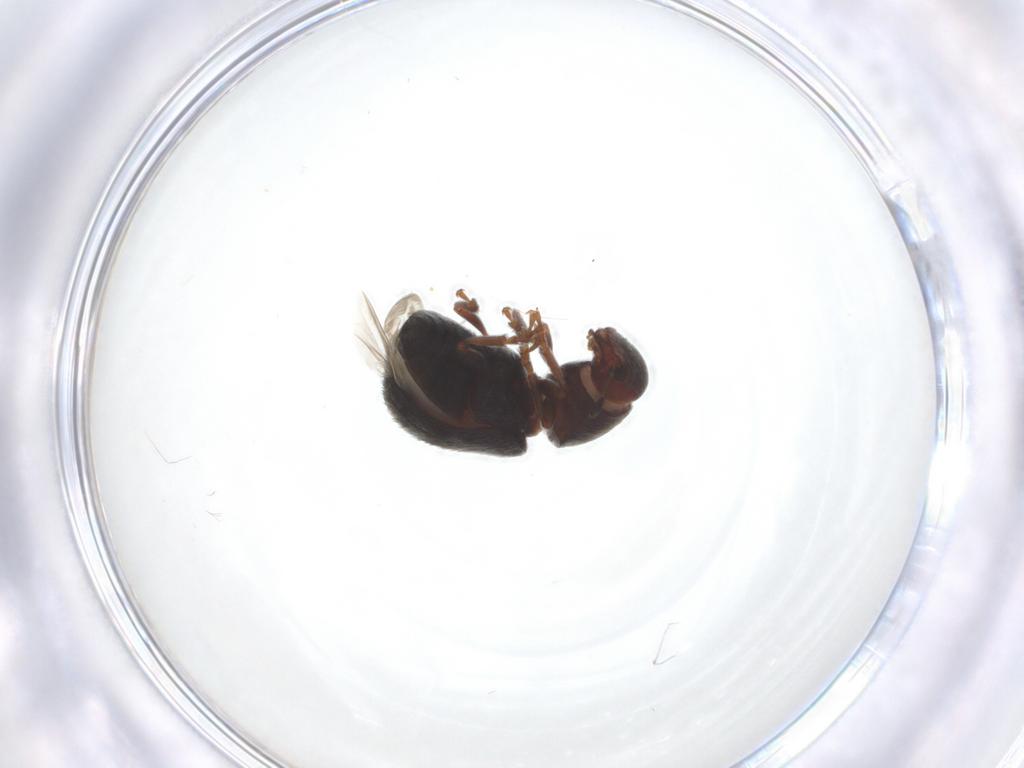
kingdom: Animalia
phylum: Arthropoda
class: Insecta
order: Coleoptera
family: Anthribidae
